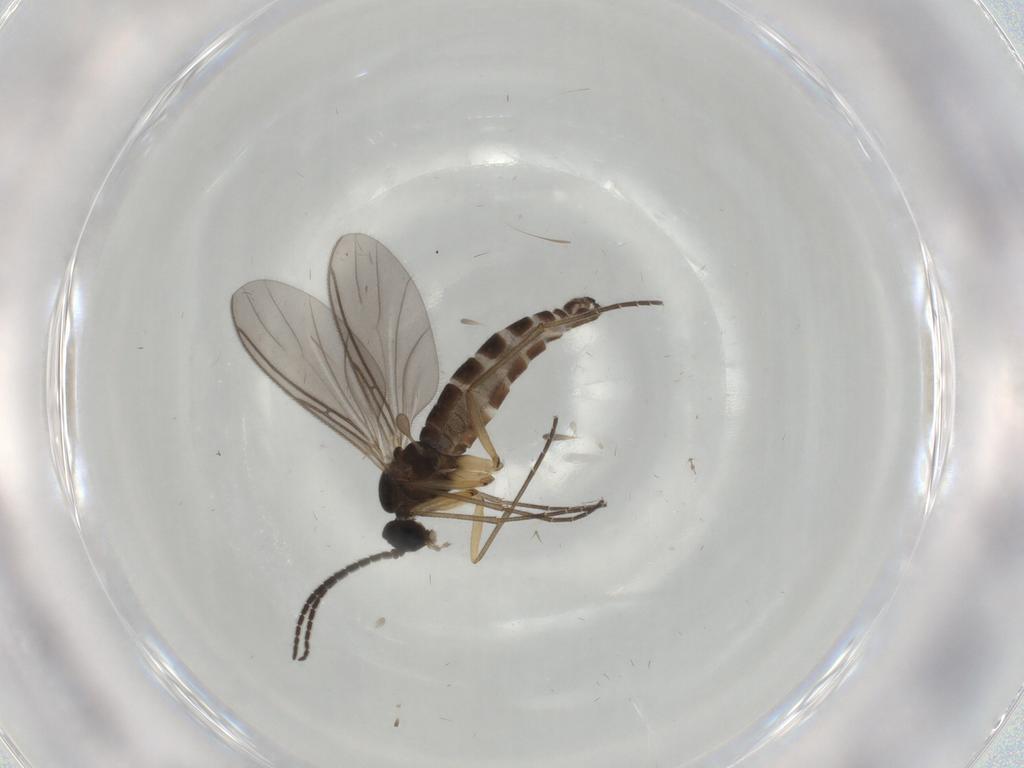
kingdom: Animalia
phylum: Arthropoda
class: Insecta
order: Diptera
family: Sciaridae
